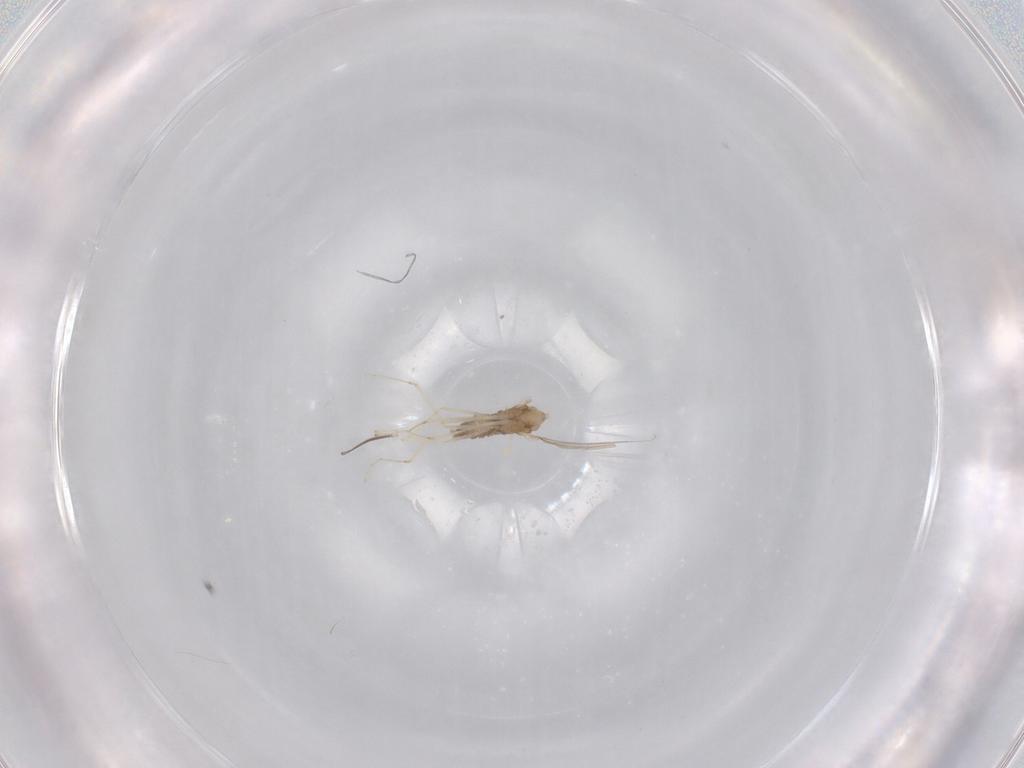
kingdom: Animalia
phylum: Arthropoda
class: Insecta
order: Diptera
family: Cecidomyiidae
